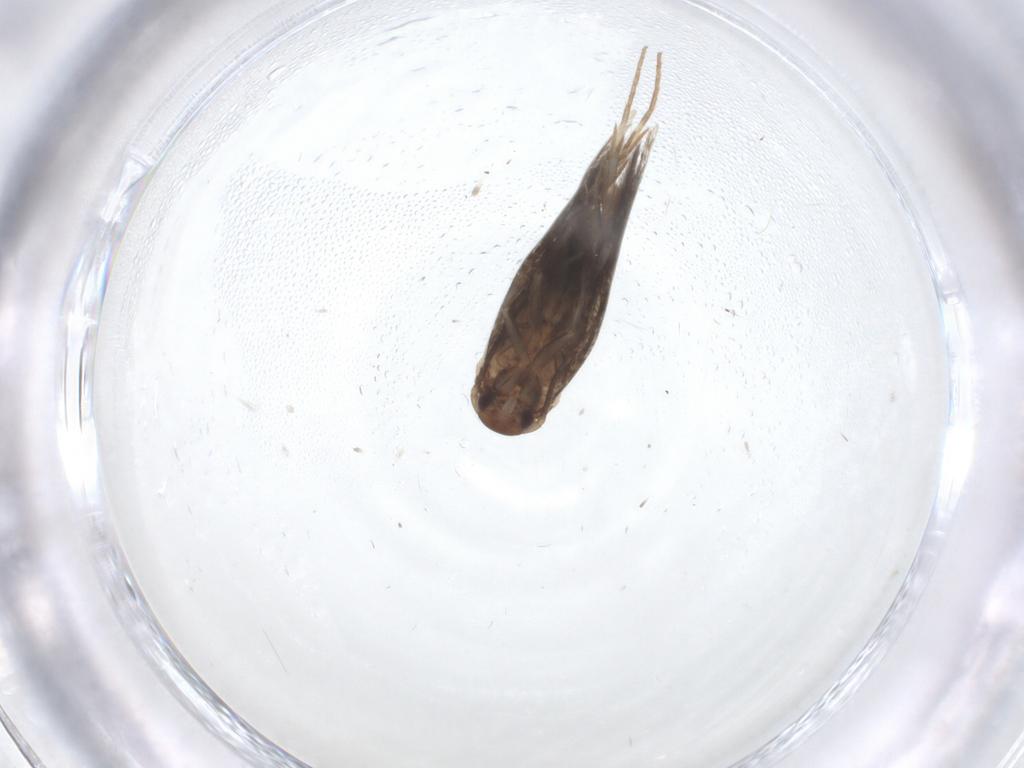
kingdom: Animalia
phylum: Arthropoda
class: Insecta
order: Lepidoptera
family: Elachistidae
